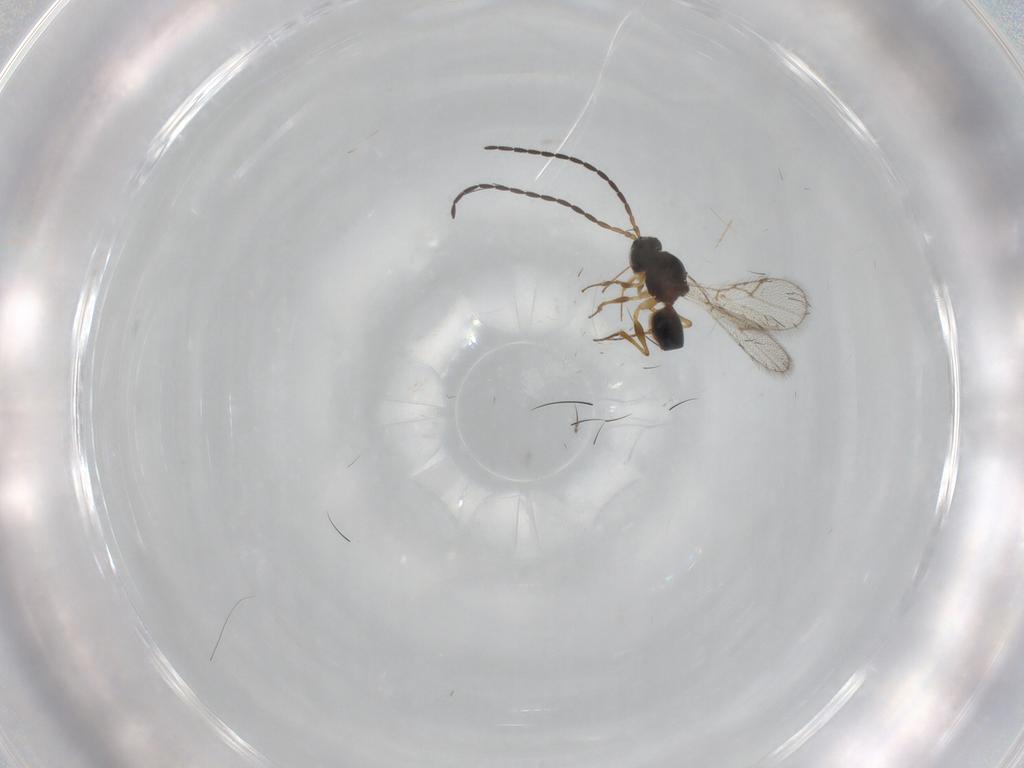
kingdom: Animalia
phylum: Arthropoda
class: Insecta
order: Hymenoptera
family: Figitidae
